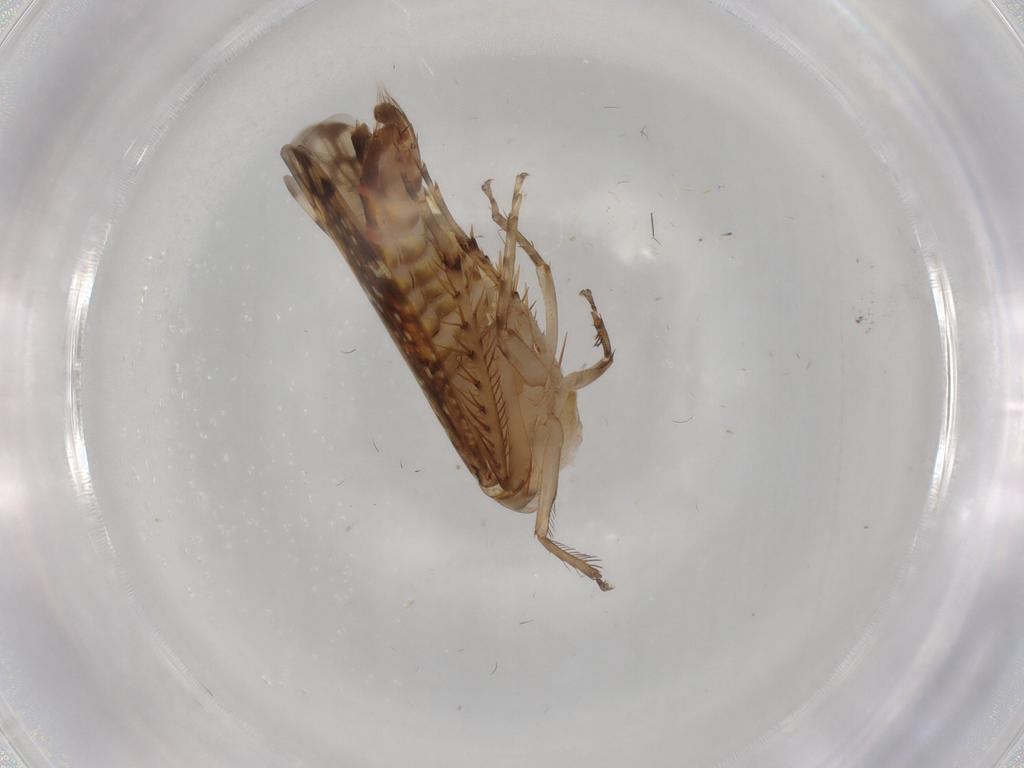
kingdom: Animalia
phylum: Arthropoda
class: Insecta
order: Hemiptera
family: Cicadellidae
